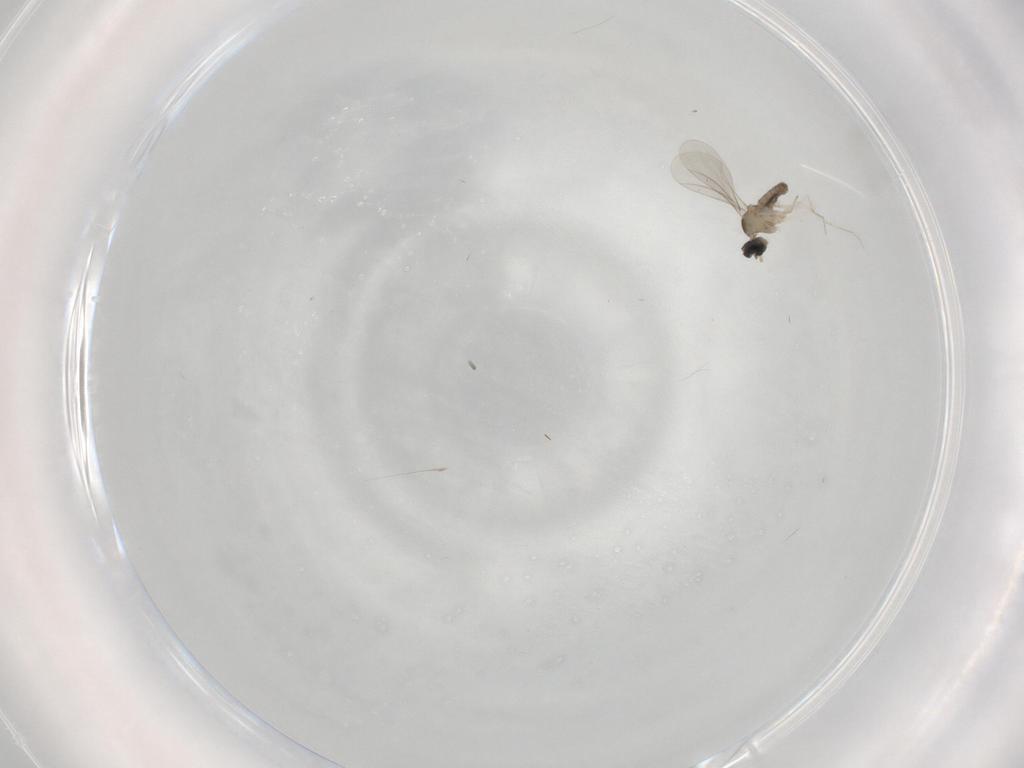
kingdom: Animalia
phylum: Arthropoda
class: Insecta
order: Diptera
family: Cecidomyiidae
